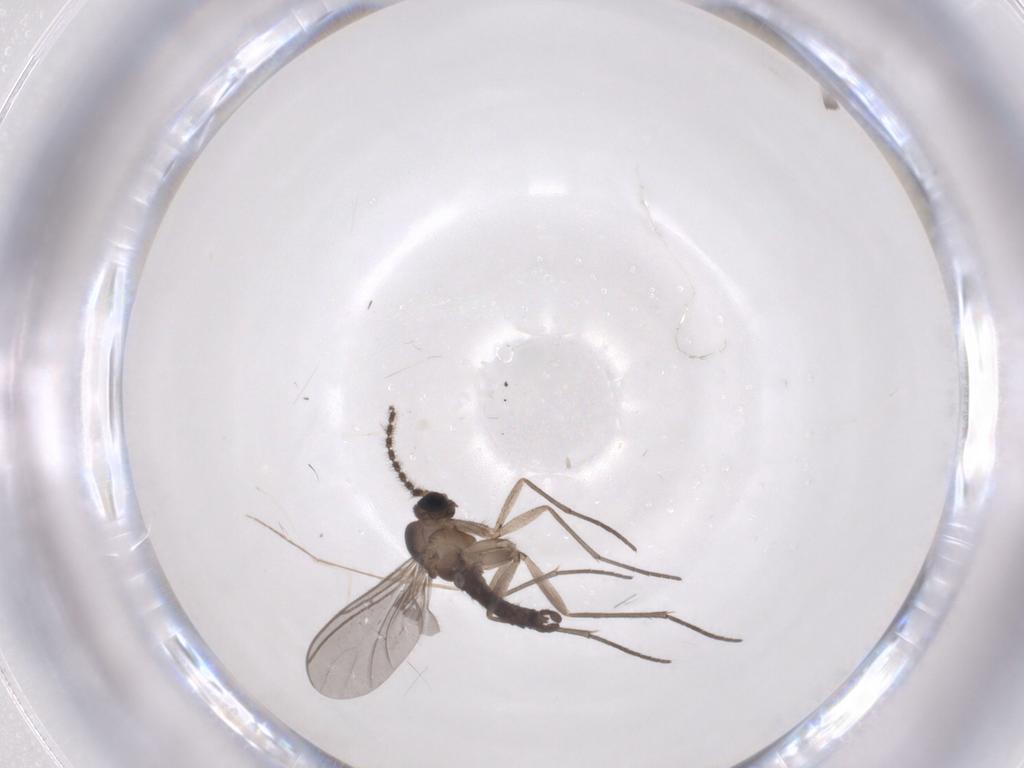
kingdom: Animalia
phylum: Arthropoda
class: Insecta
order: Diptera
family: Sciaridae
